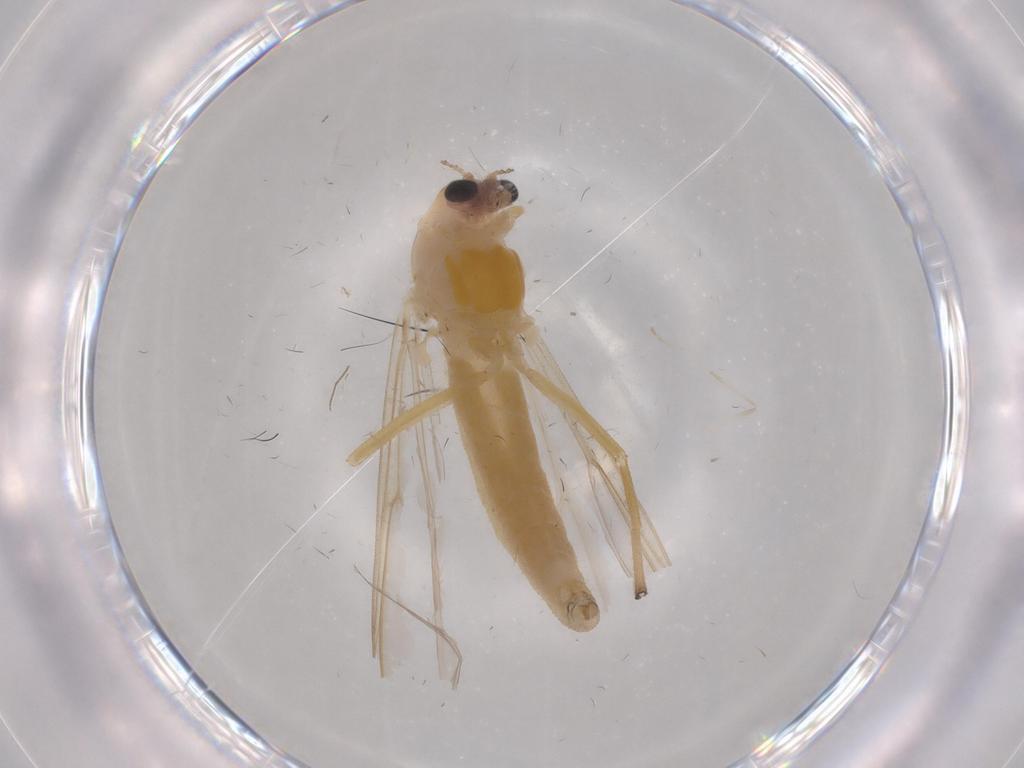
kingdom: Animalia
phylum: Arthropoda
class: Insecta
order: Diptera
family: Chironomidae
